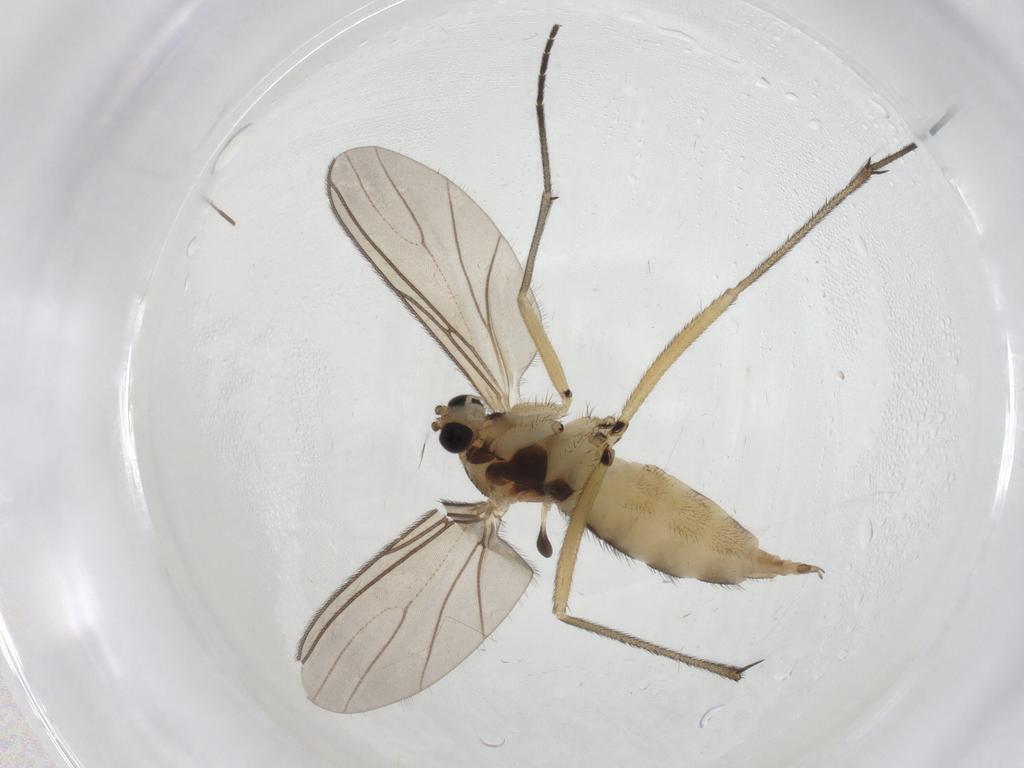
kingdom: Animalia
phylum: Arthropoda
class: Insecta
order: Diptera
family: Sciaridae
